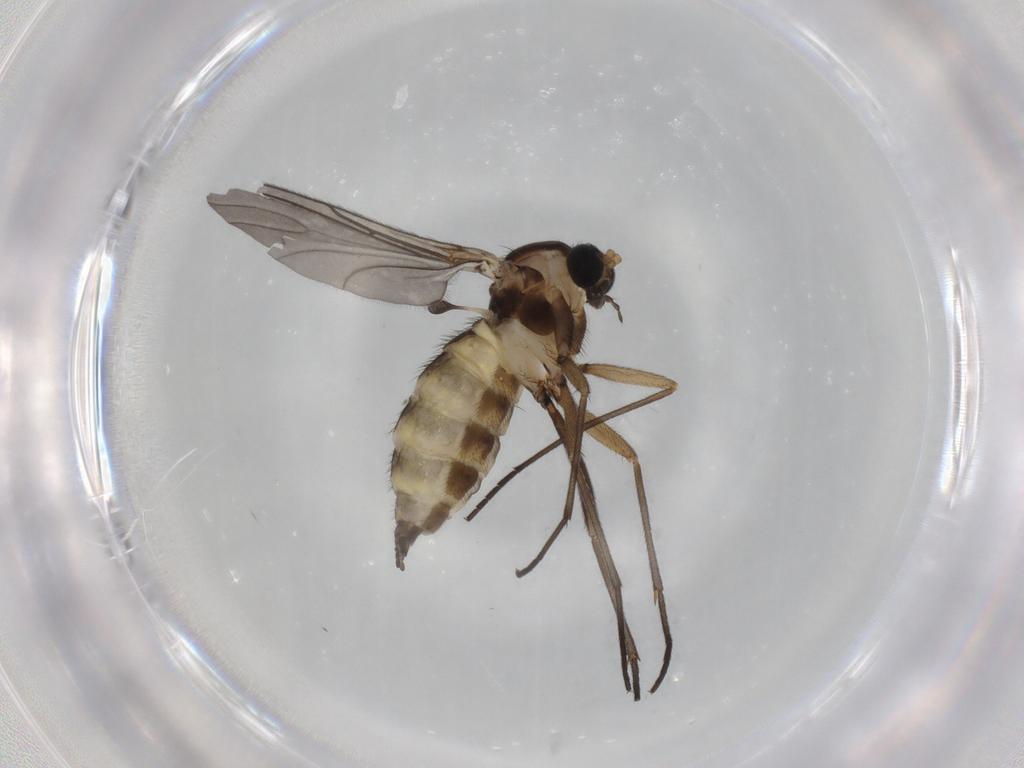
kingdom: Animalia
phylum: Arthropoda
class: Insecta
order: Diptera
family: Sciaridae
